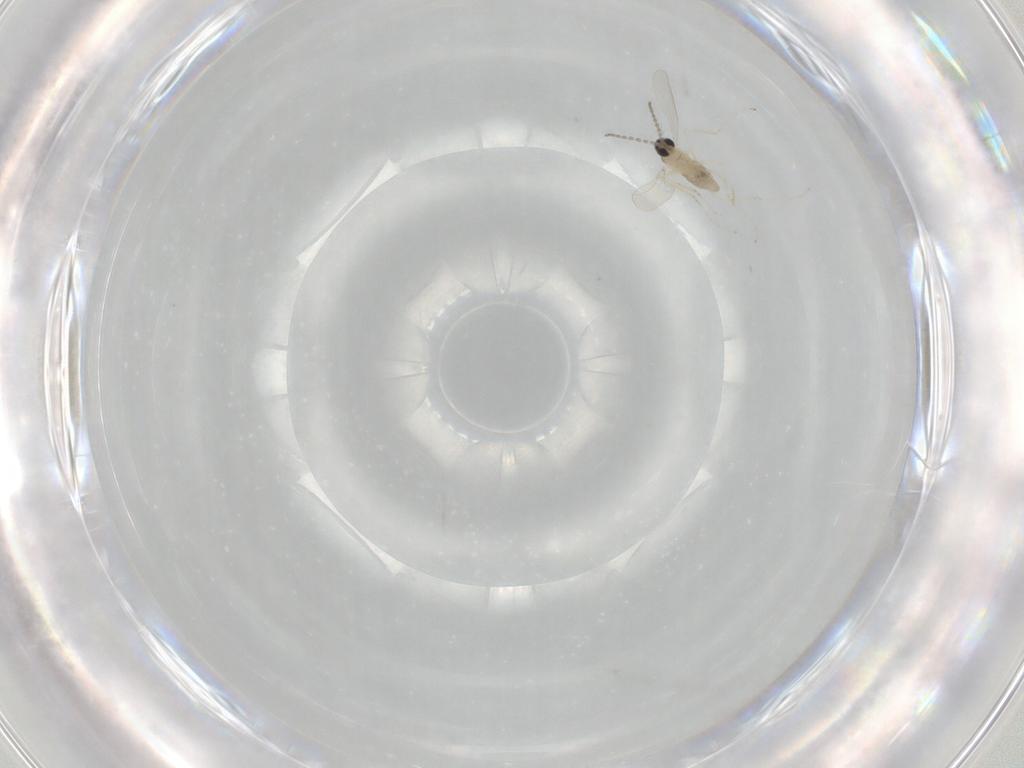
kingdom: Animalia
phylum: Arthropoda
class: Insecta
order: Diptera
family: Cecidomyiidae
